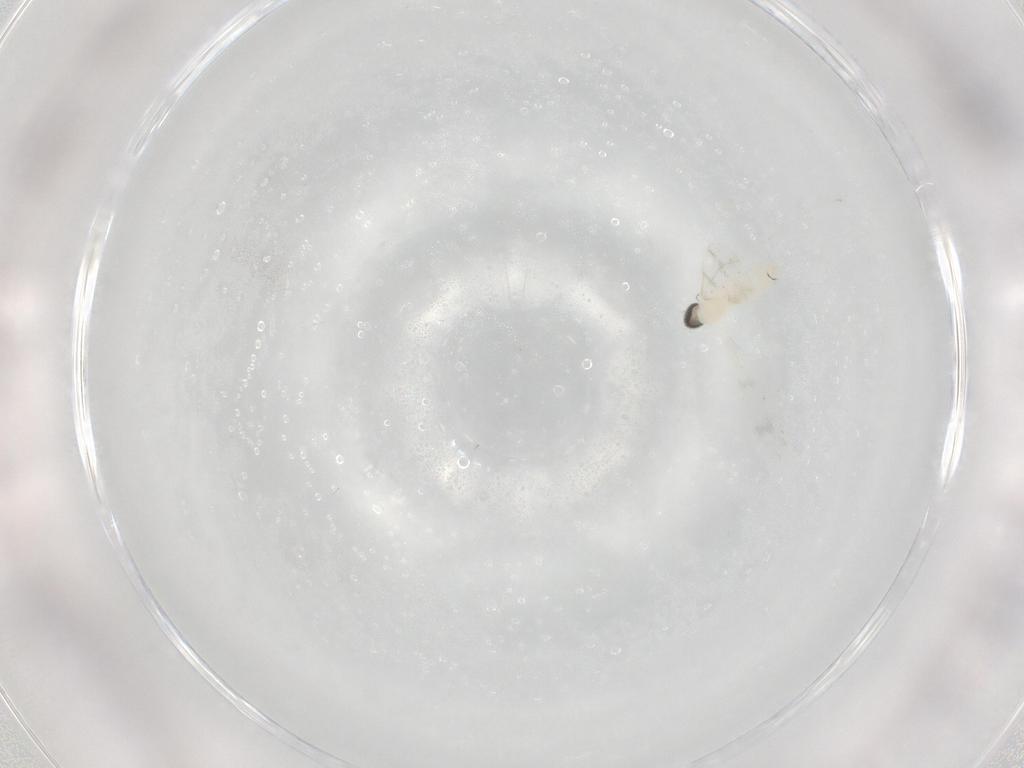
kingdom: Animalia
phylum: Arthropoda
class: Insecta
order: Diptera
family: Cecidomyiidae
